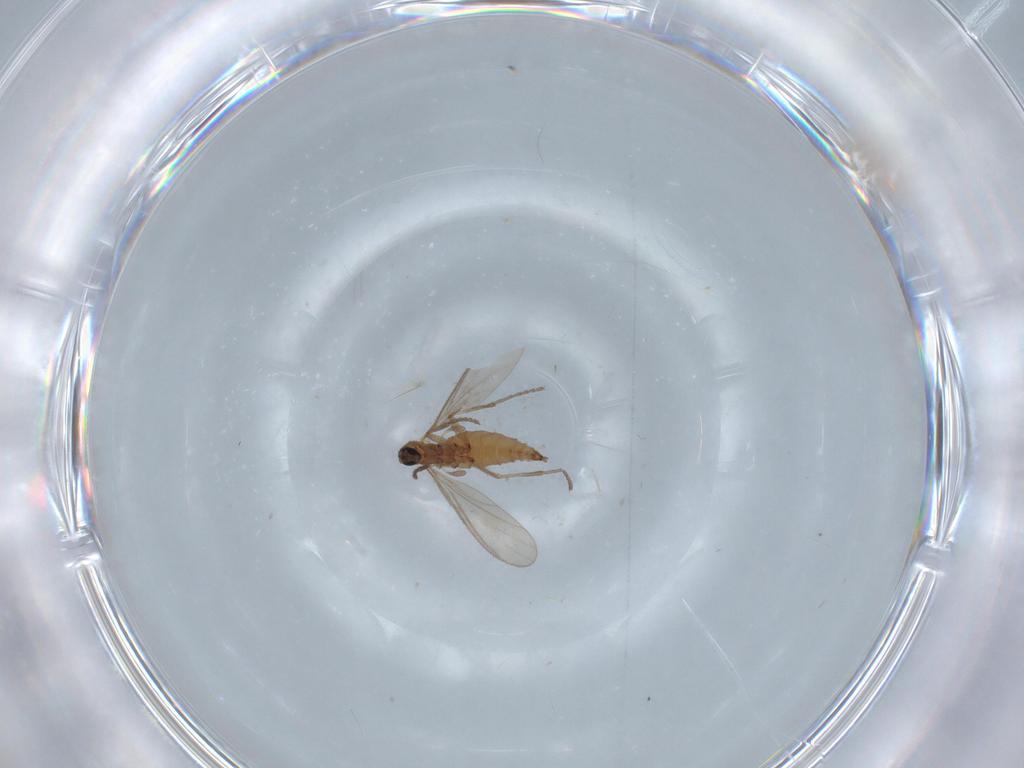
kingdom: Animalia
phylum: Arthropoda
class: Insecta
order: Diptera
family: Sciaridae
